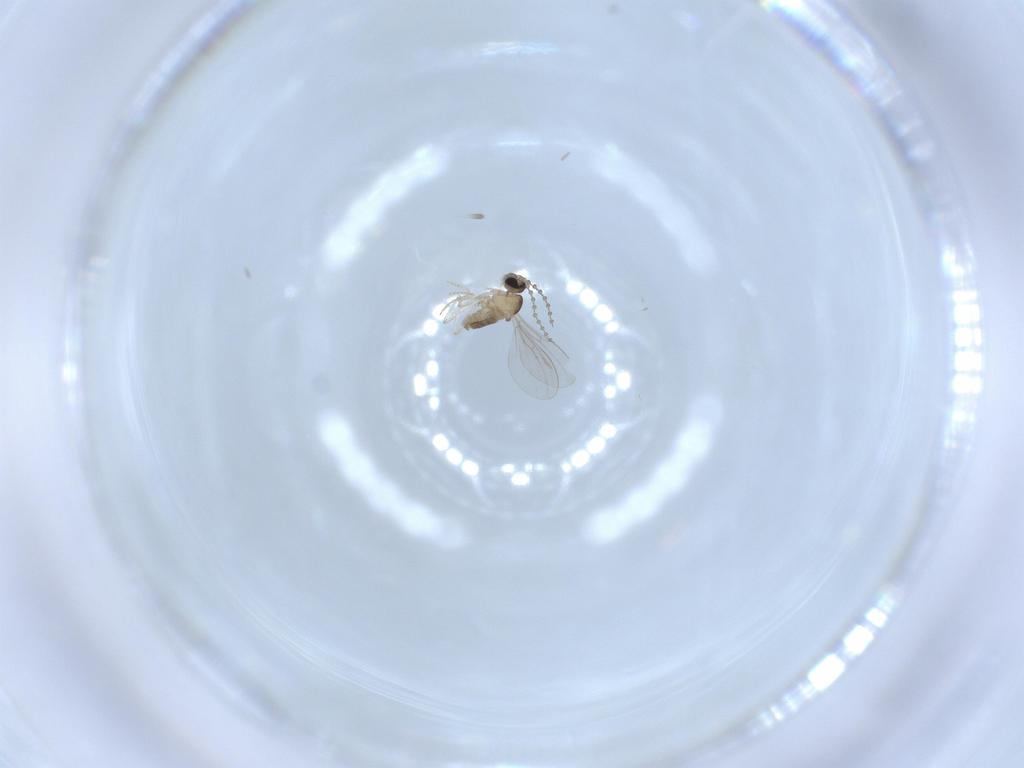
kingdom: Animalia
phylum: Arthropoda
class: Insecta
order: Diptera
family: Cecidomyiidae
